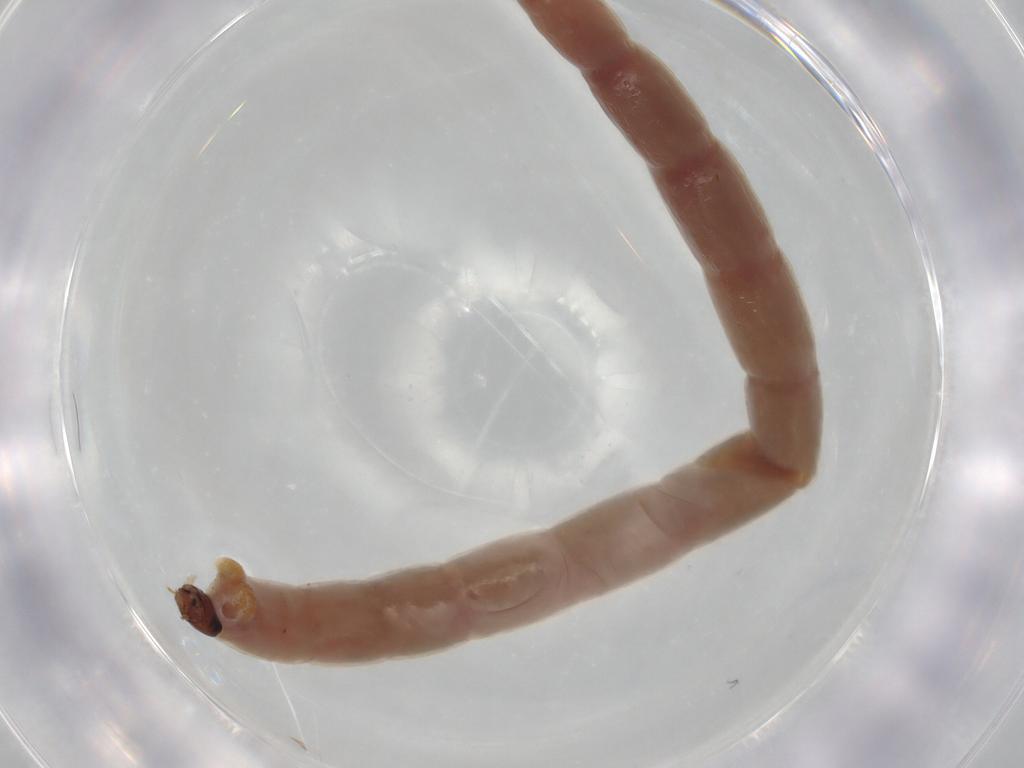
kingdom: Animalia
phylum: Arthropoda
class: Insecta
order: Diptera
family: Chironomidae
